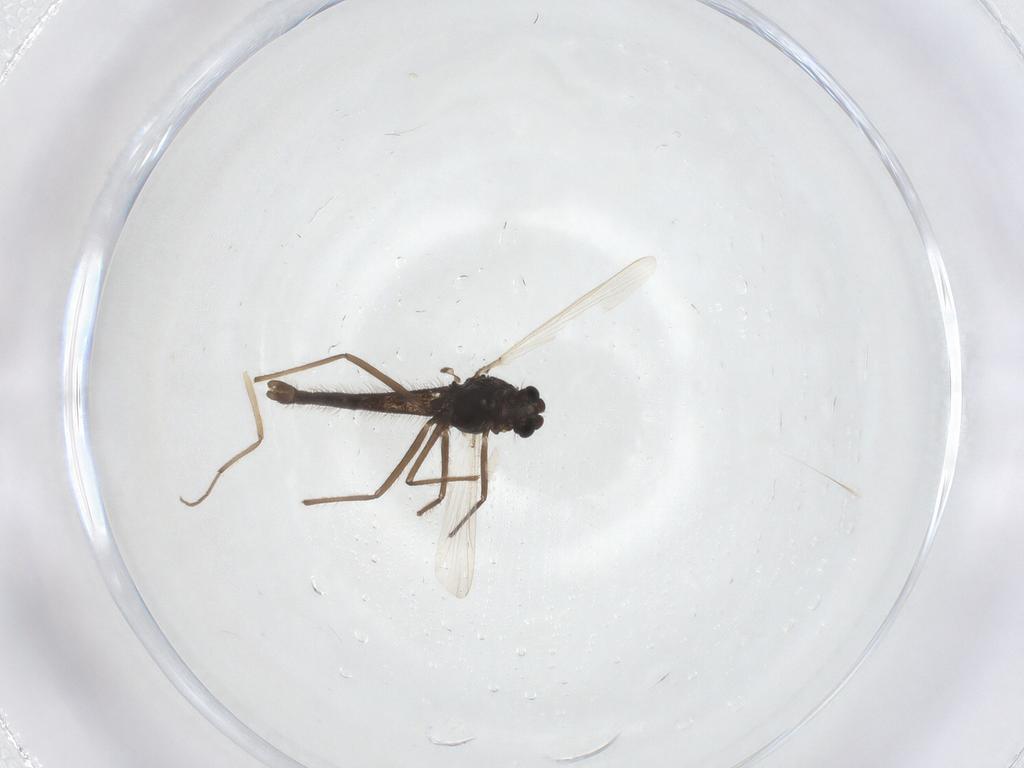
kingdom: Animalia
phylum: Arthropoda
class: Insecta
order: Diptera
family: Chironomidae
